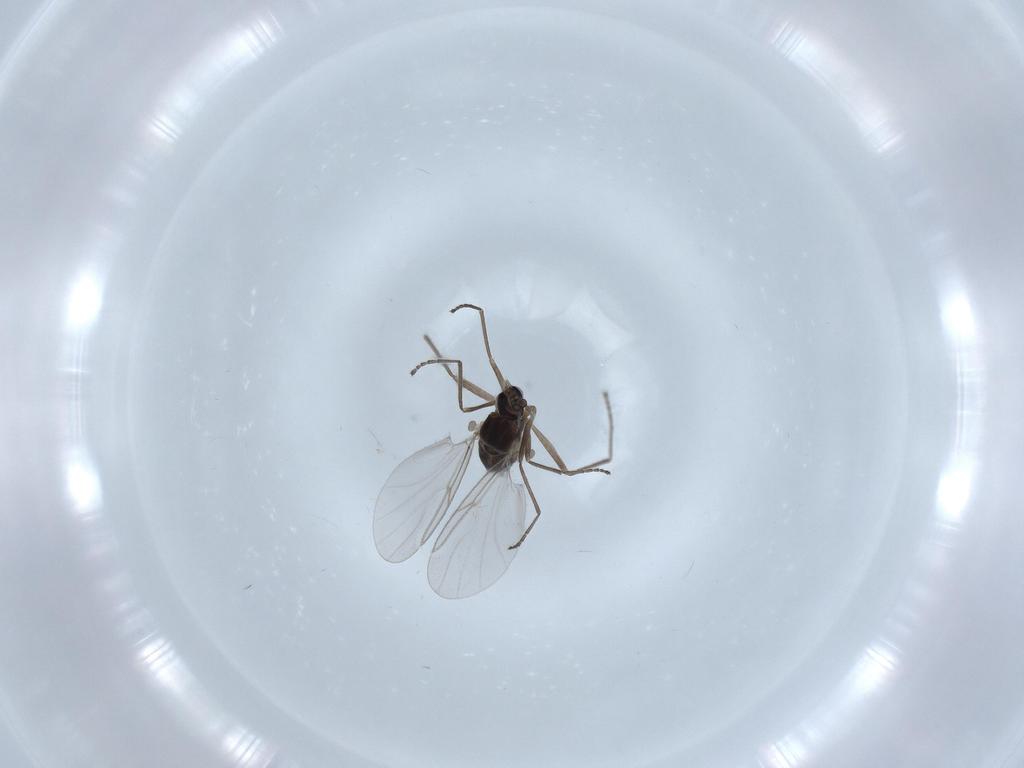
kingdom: Animalia
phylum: Arthropoda
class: Insecta
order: Diptera
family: Cecidomyiidae
